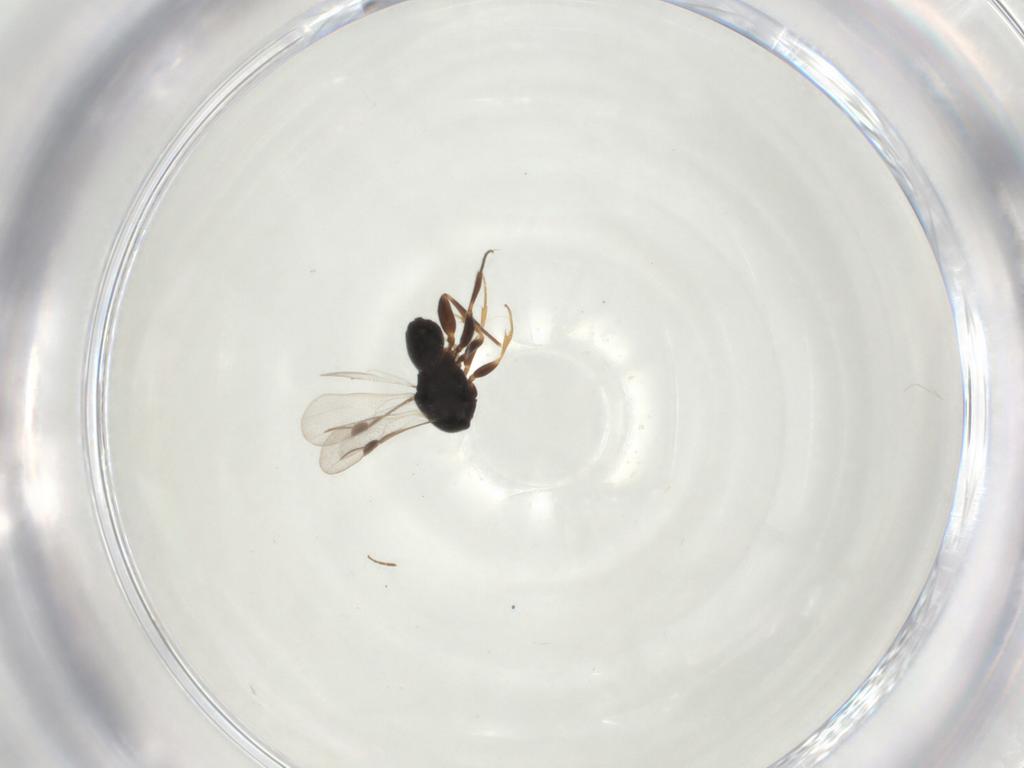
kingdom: Animalia
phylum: Arthropoda
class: Insecta
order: Hymenoptera
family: Megaspilidae
